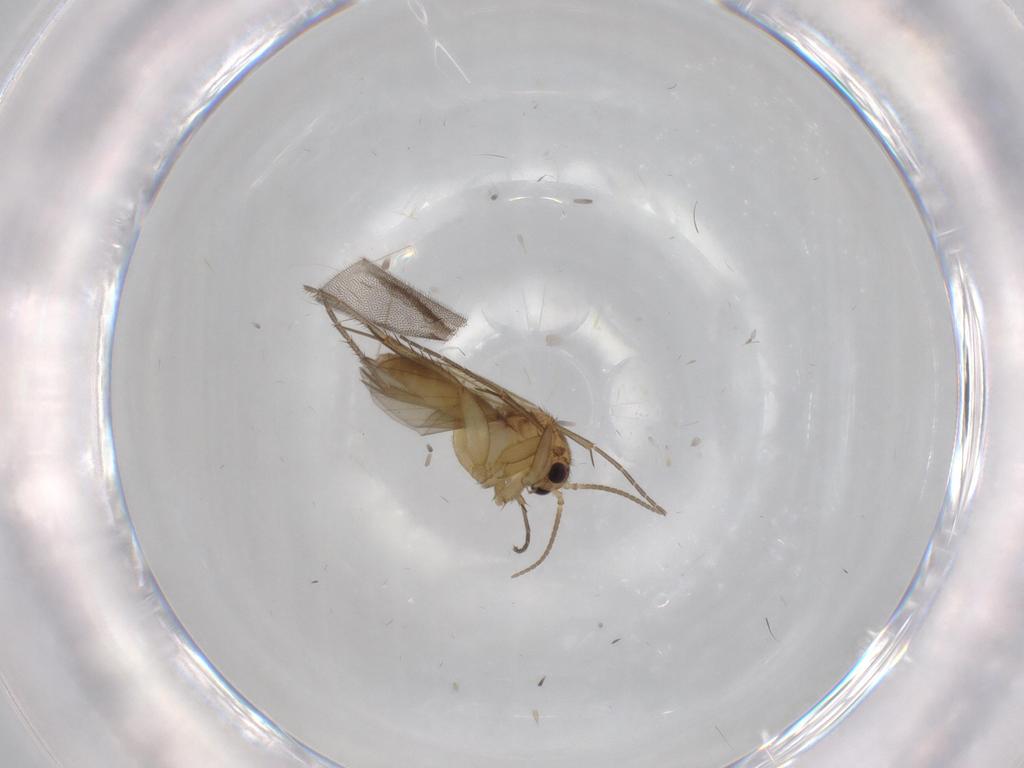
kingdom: Animalia
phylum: Arthropoda
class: Insecta
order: Diptera
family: Mycetophilidae
